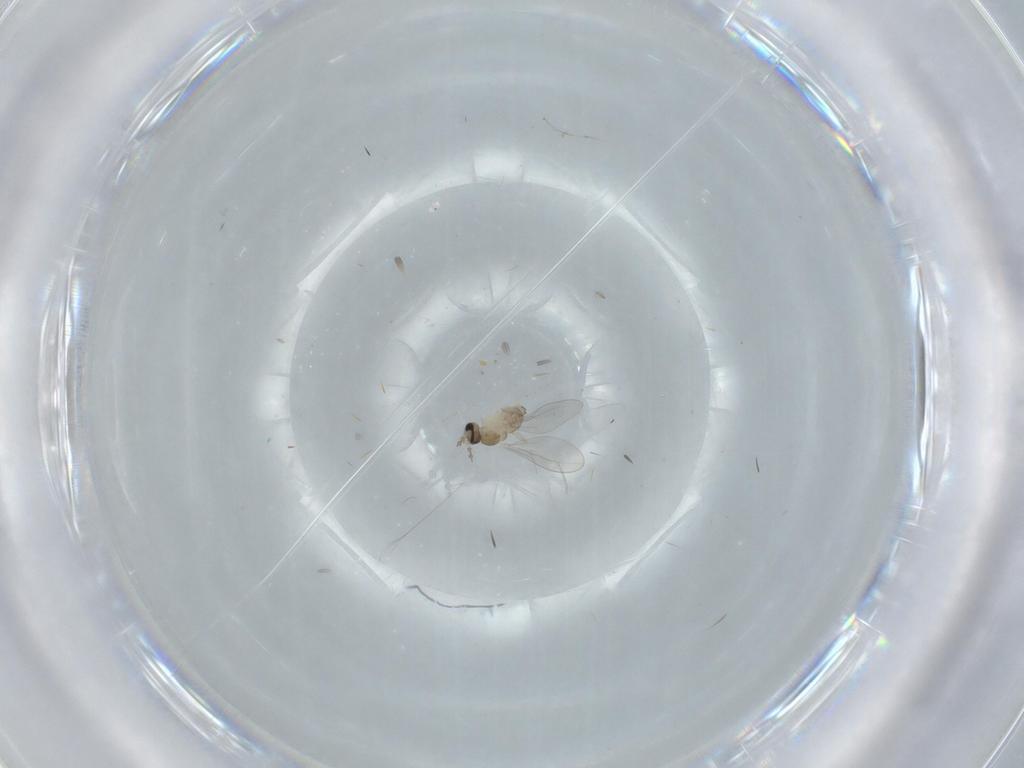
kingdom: Animalia
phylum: Arthropoda
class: Insecta
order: Diptera
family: Cecidomyiidae
